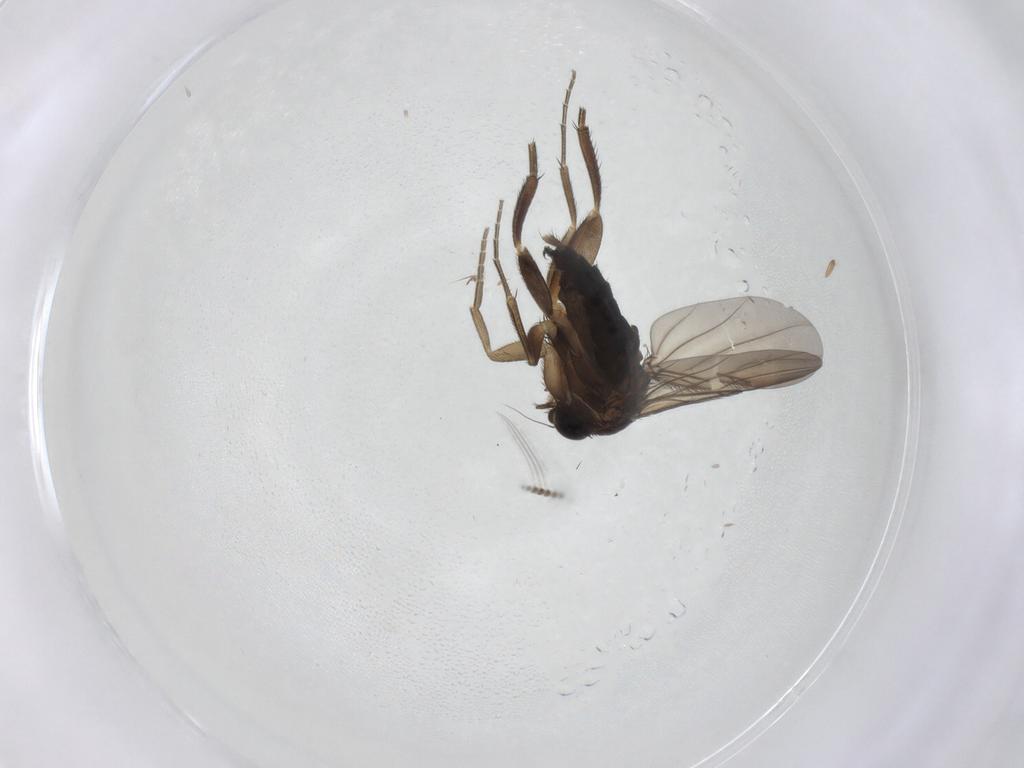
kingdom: Animalia
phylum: Arthropoda
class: Insecta
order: Diptera
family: Phoridae
